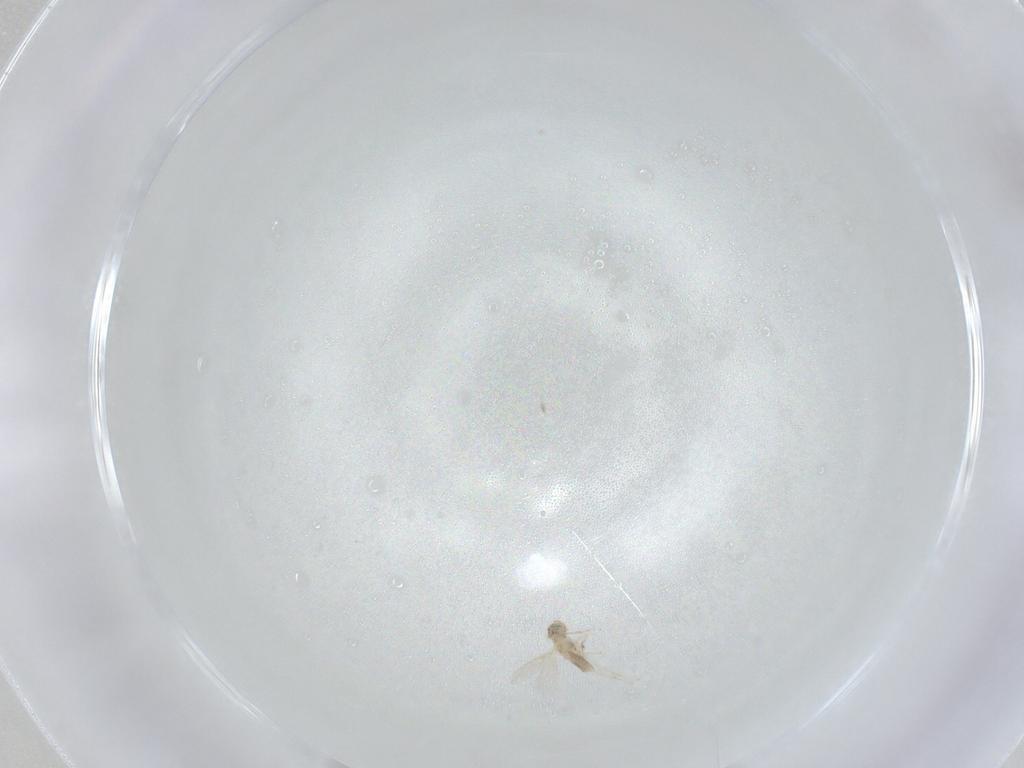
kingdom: Animalia
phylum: Arthropoda
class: Insecta
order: Hymenoptera
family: Aphelinidae
